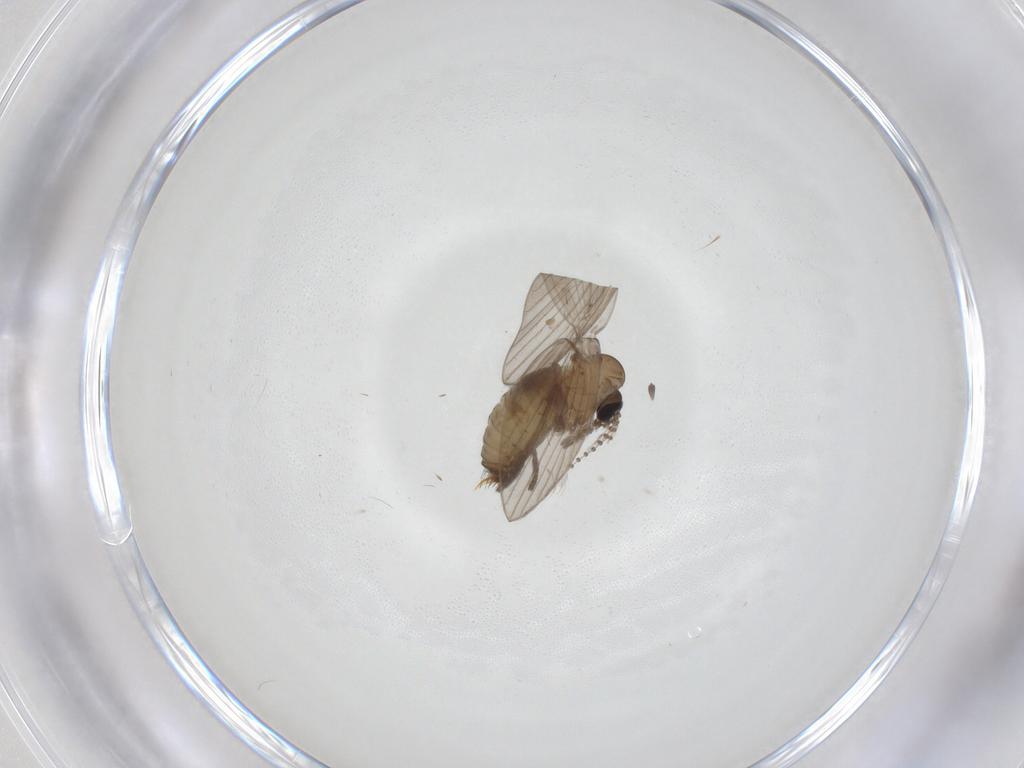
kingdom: Animalia
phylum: Arthropoda
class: Insecta
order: Diptera
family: Psychodidae
